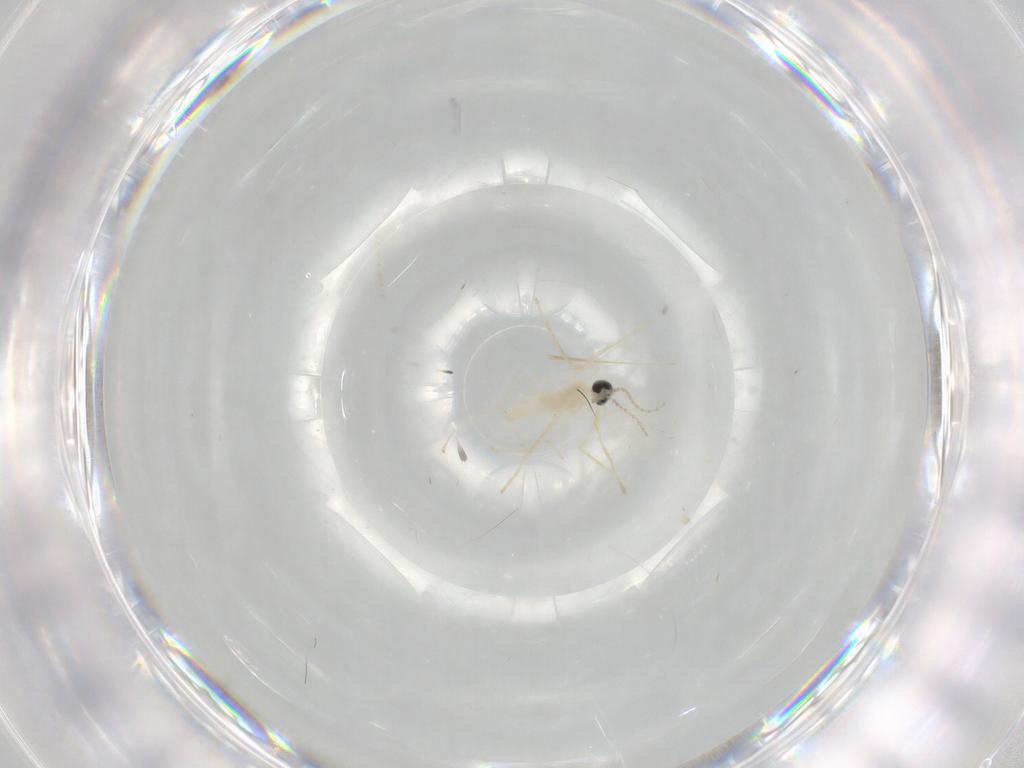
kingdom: Animalia
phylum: Arthropoda
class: Insecta
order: Diptera
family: Cecidomyiidae
